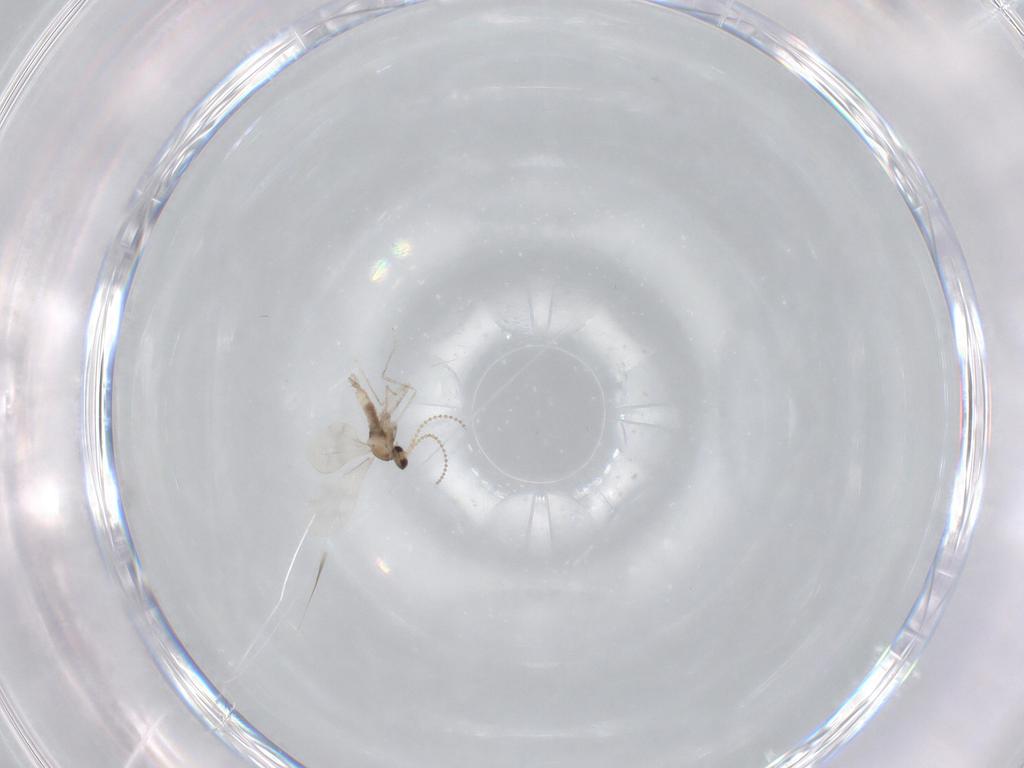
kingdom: Animalia
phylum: Arthropoda
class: Insecta
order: Diptera
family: Cecidomyiidae
